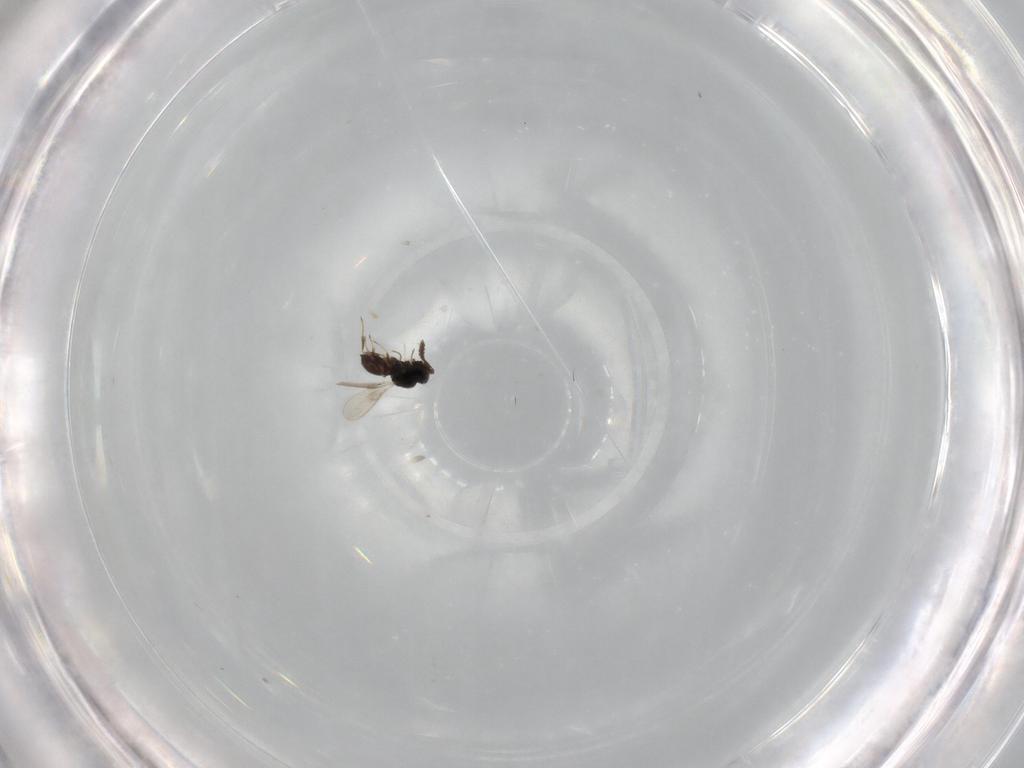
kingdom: Animalia
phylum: Arthropoda
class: Insecta
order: Hymenoptera
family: Scelionidae
